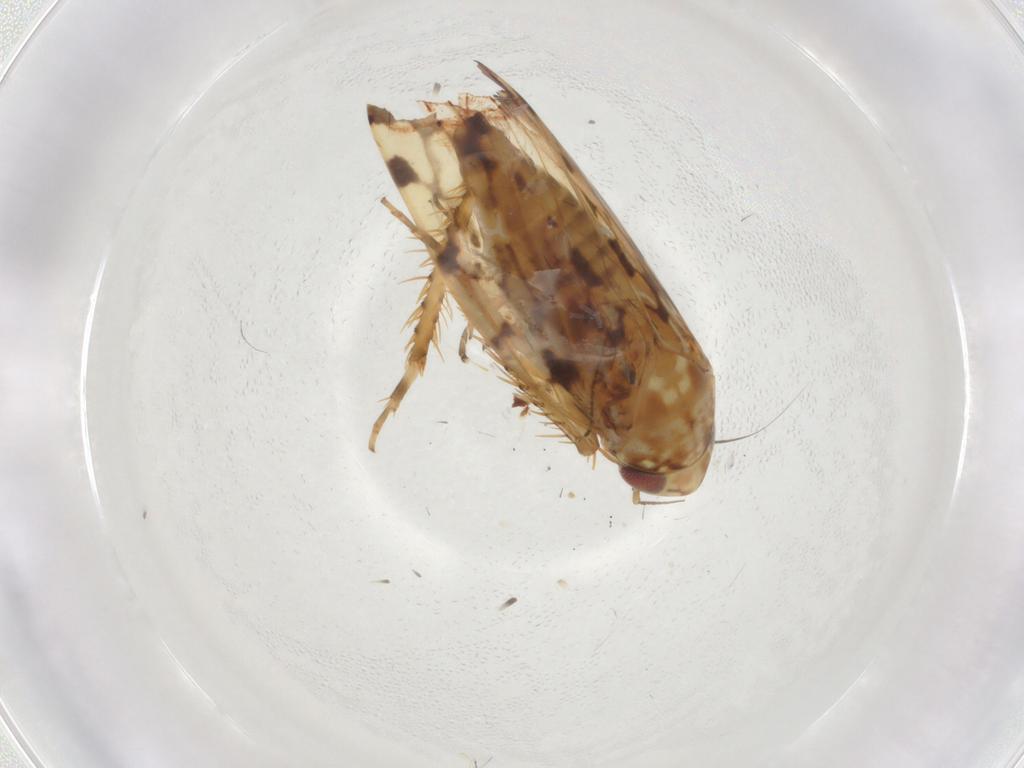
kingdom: Animalia
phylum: Arthropoda
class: Insecta
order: Hemiptera
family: Cicadellidae
